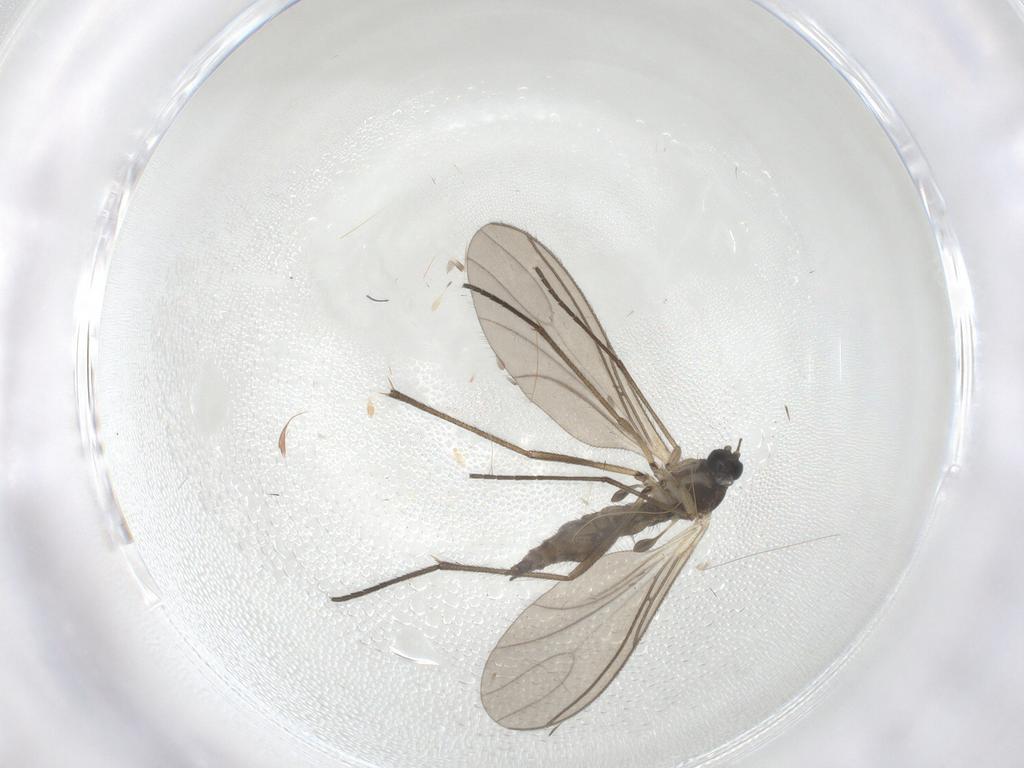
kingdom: Animalia
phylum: Arthropoda
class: Insecta
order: Diptera
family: Sciaridae
